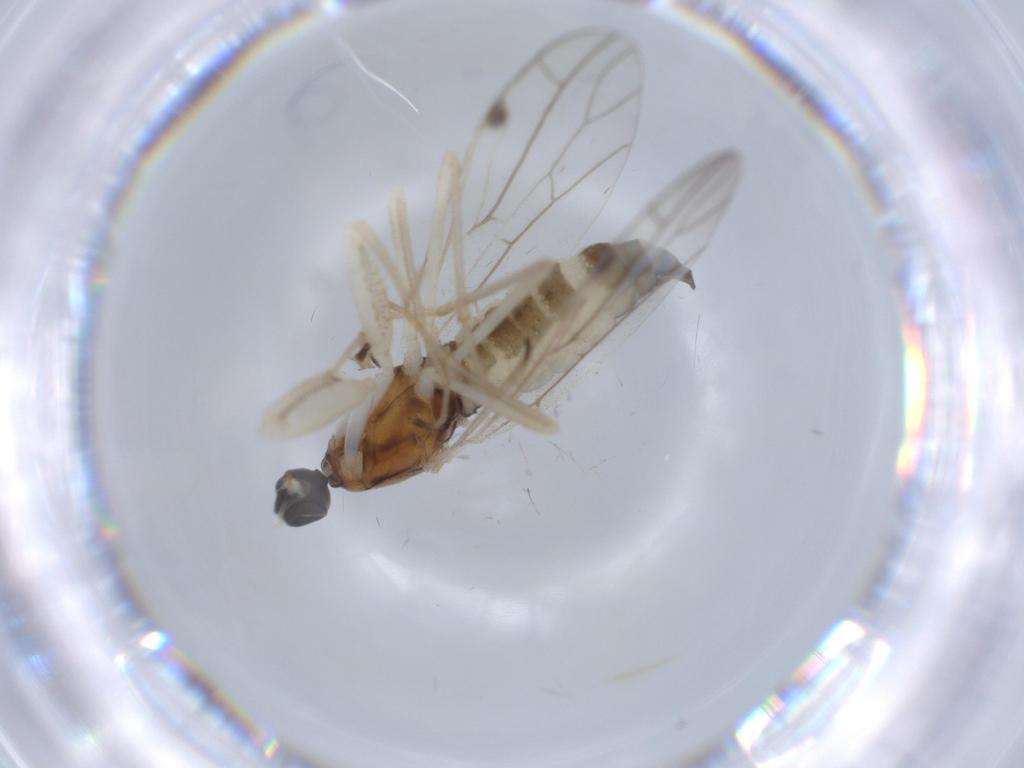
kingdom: Animalia
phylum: Arthropoda
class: Insecta
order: Diptera
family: Empididae
